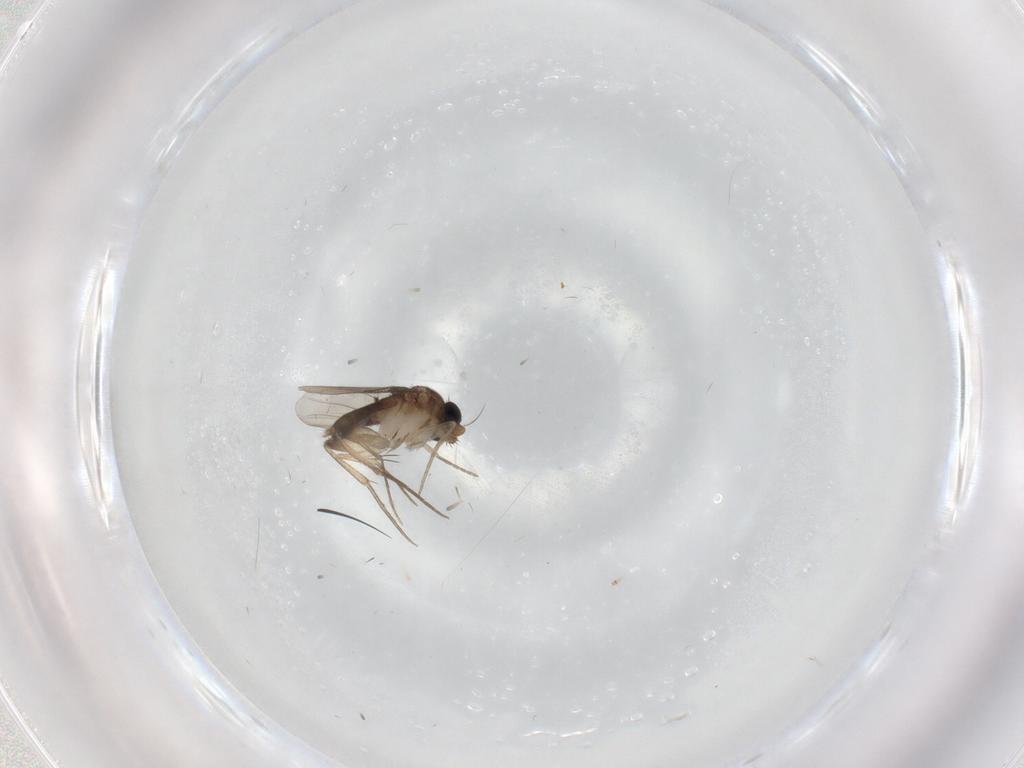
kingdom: Animalia
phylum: Arthropoda
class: Insecta
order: Diptera
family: Phoridae
